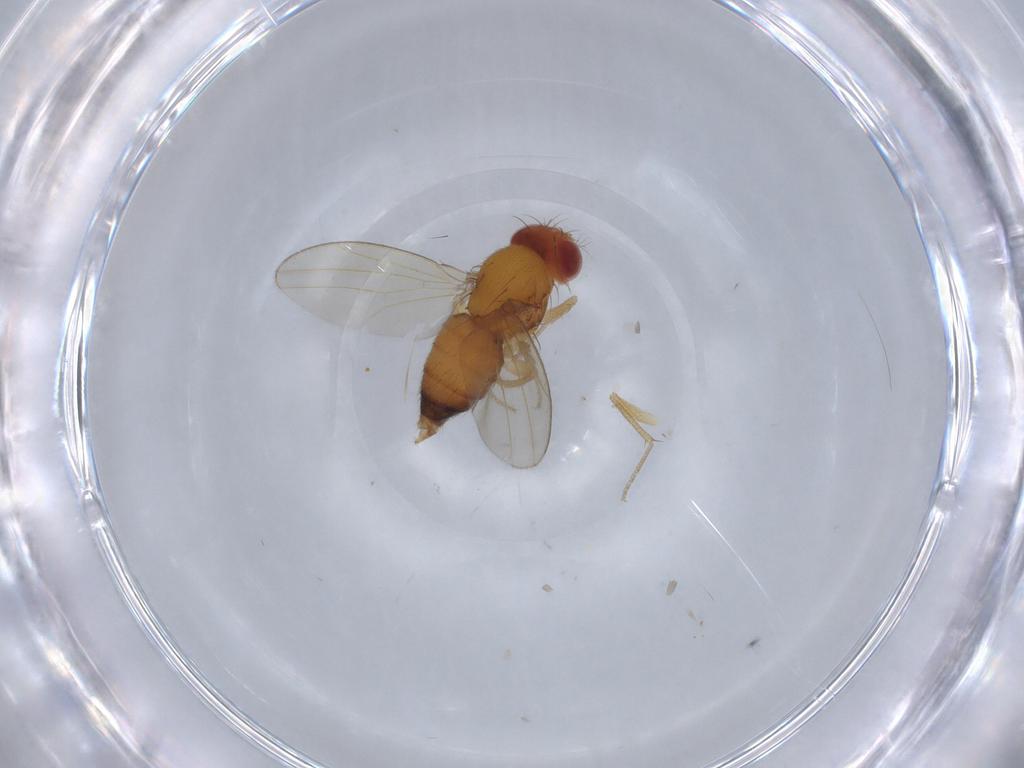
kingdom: Animalia
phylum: Arthropoda
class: Insecta
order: Diptera
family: Drosophilidae
